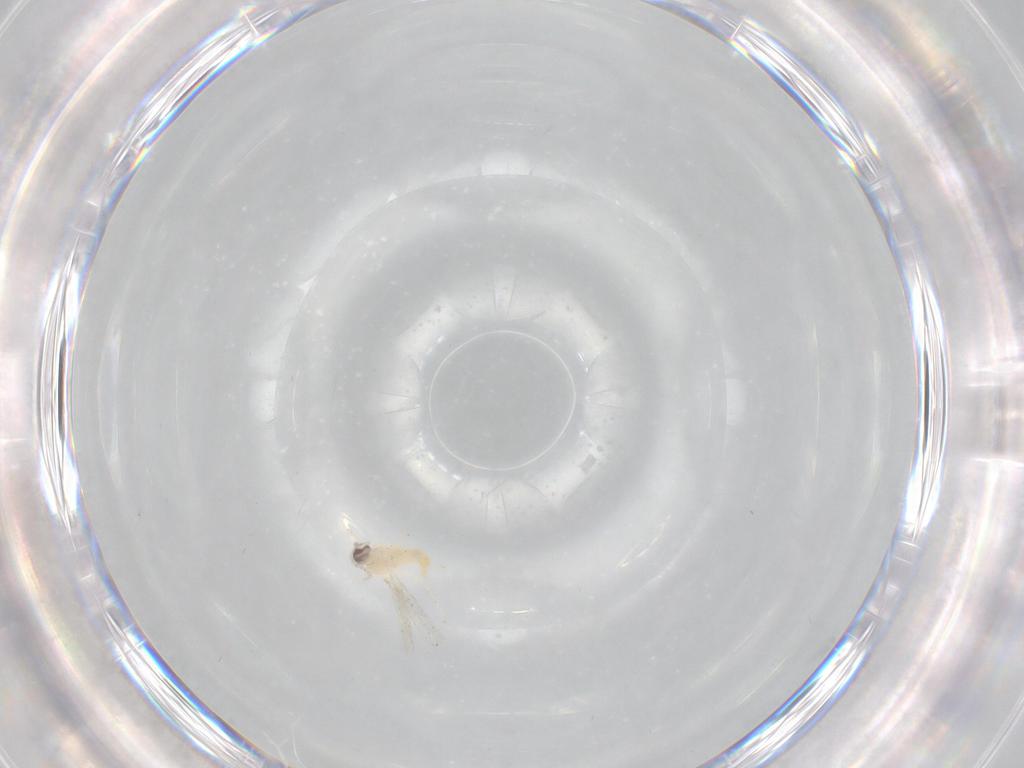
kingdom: Animalia
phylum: Arthropoda
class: Insecta
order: Diptera
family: Cecidomyiidae
